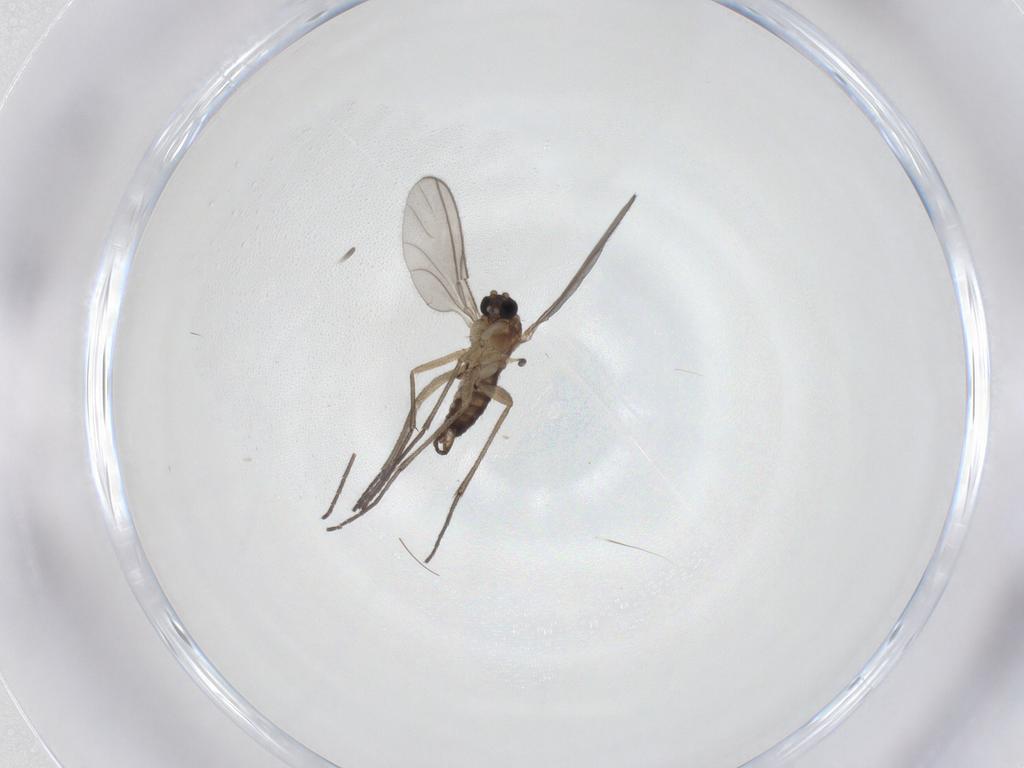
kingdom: Animalia
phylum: Arthropoda
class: Insecta
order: Diptera
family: Sciaridae
